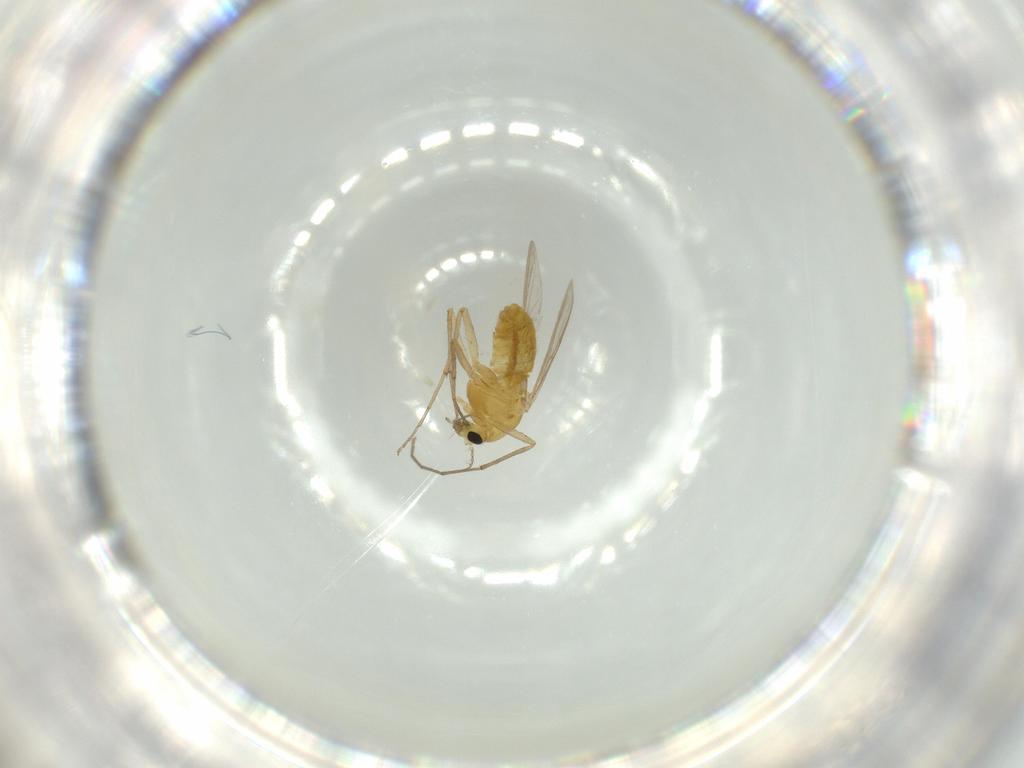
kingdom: Animalia
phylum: Arthropoda
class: Insecta
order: Diptera
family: Chironomidae
